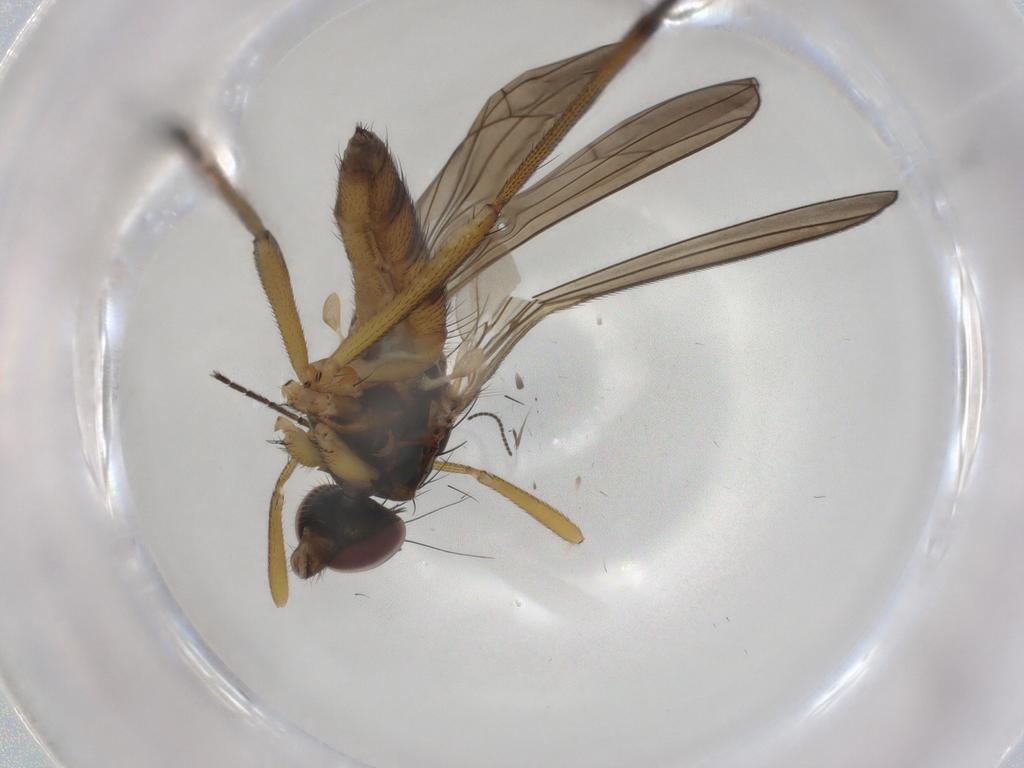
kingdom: Animalia
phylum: Arthropoda
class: Insecta
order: Diptera
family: Dolichopodidae
